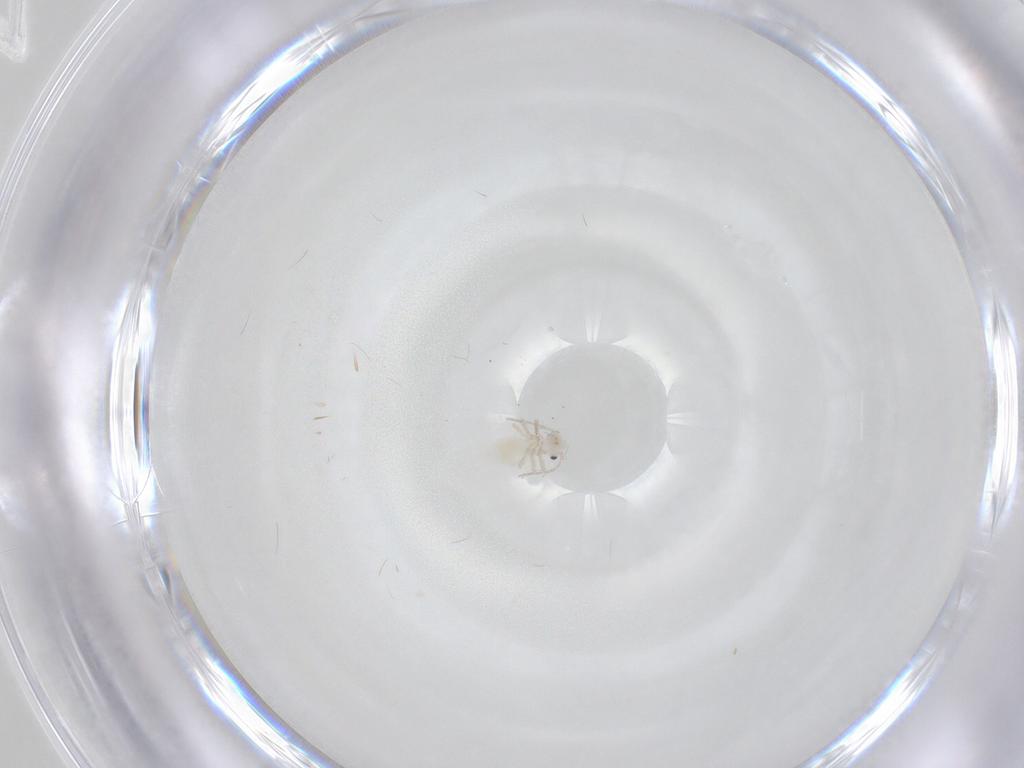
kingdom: Animalia
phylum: Arthropoda
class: Insecta
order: Psocodea
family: Caeciliusidae
